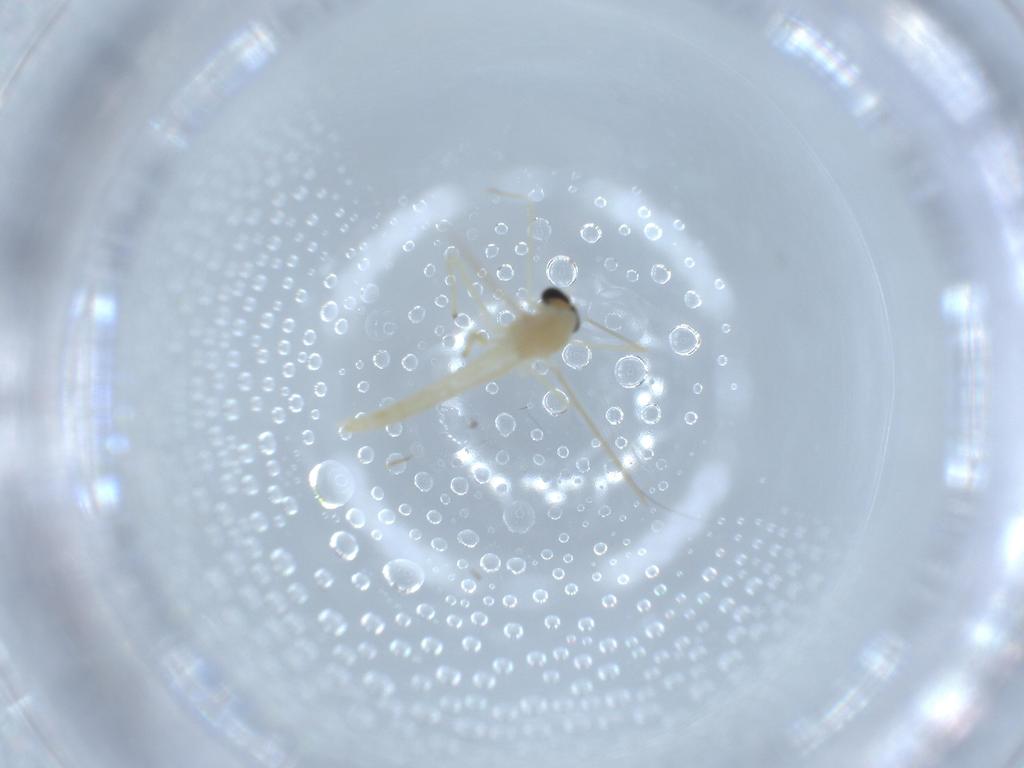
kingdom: Animalia
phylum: Arthropoda
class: Insecta
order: Diptera
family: Chironomidae
